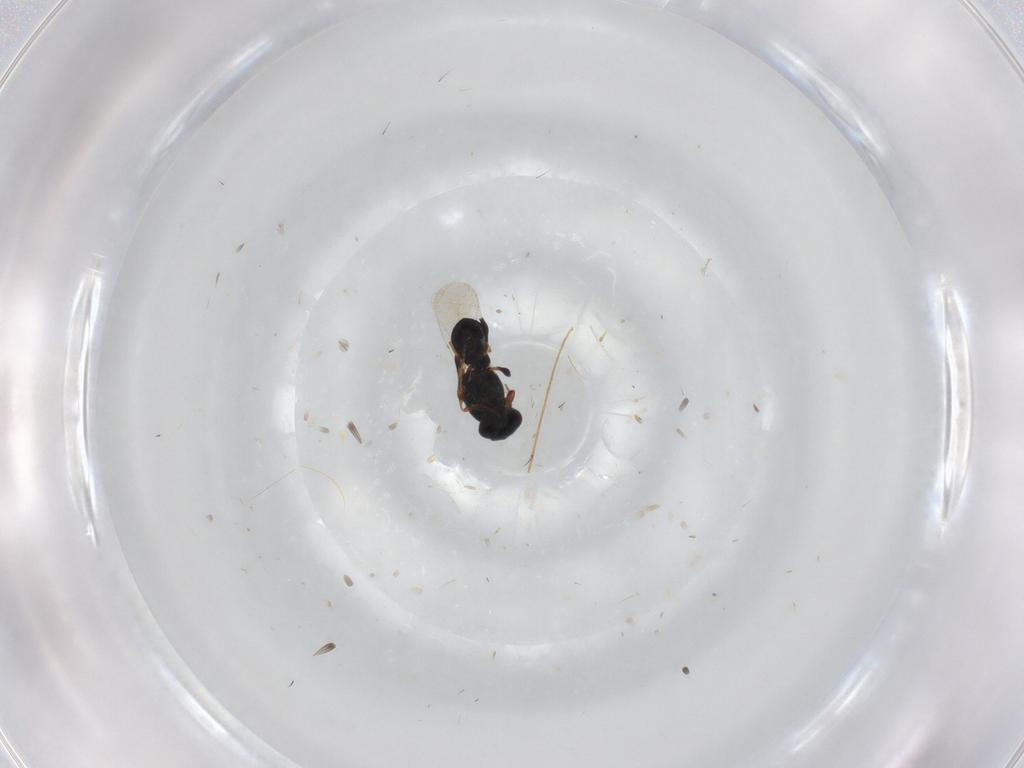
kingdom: Animalia
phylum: Arthropoda
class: Insecta
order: Hymenoptera
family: Platygastridae
